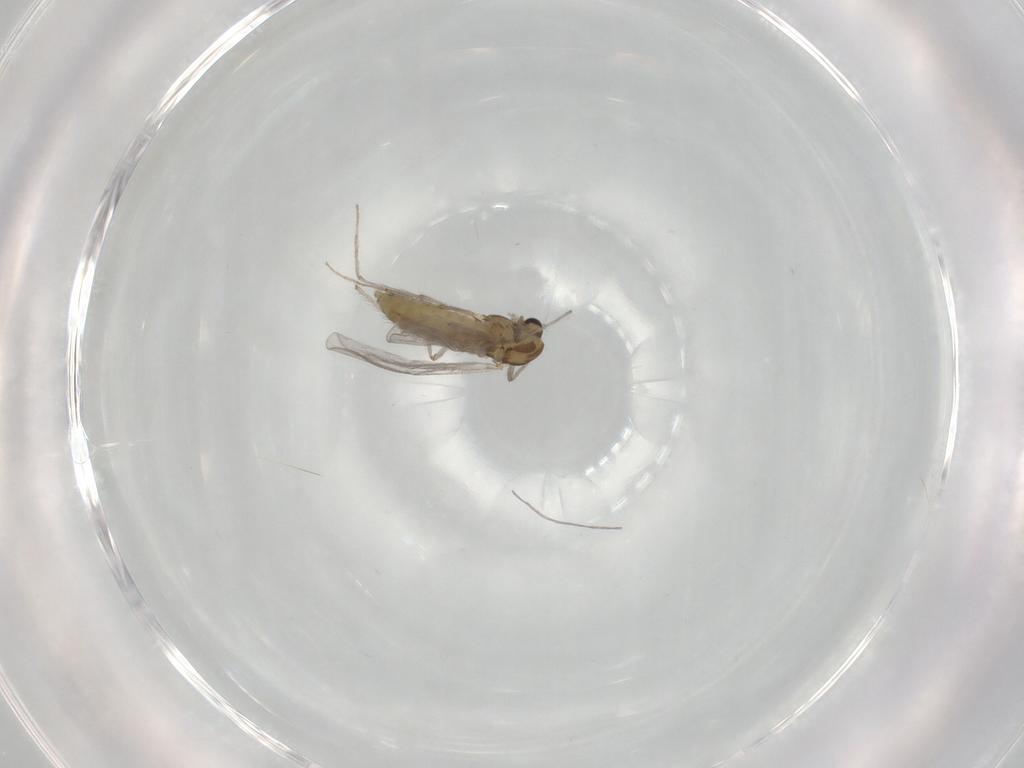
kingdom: Animalia
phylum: Arthropoda
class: Insecta
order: Diptera
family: Chironomidae
